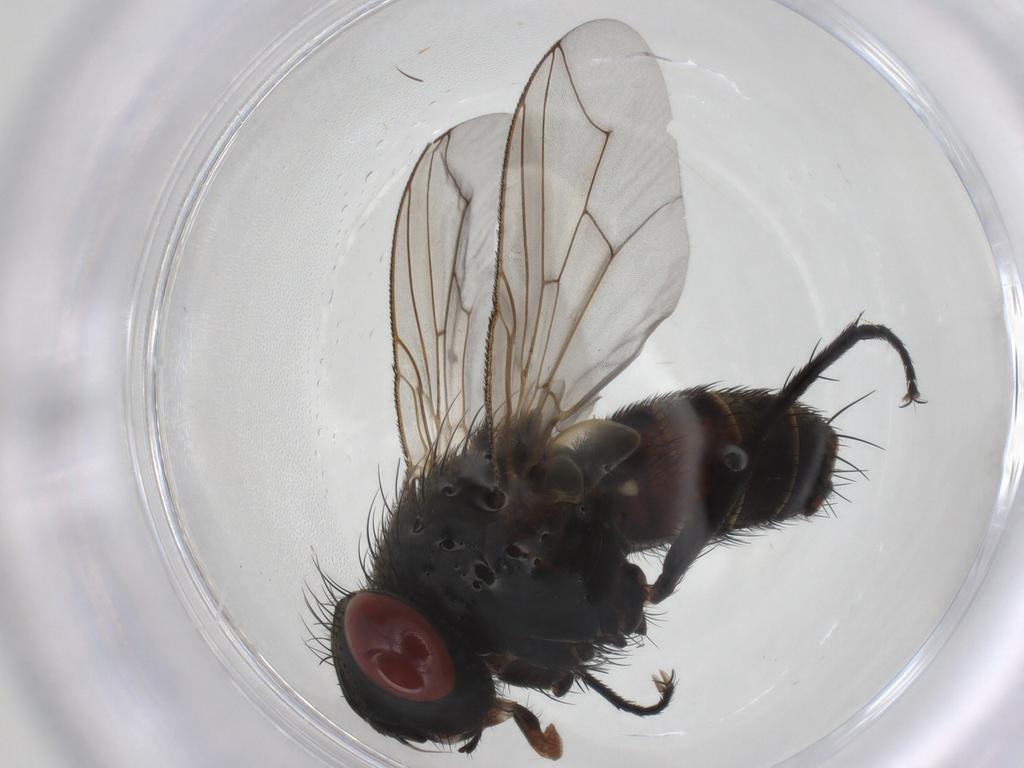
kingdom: Animalia
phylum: Arthropoda
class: Insecta
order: Diptera
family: Sarcophagidae
